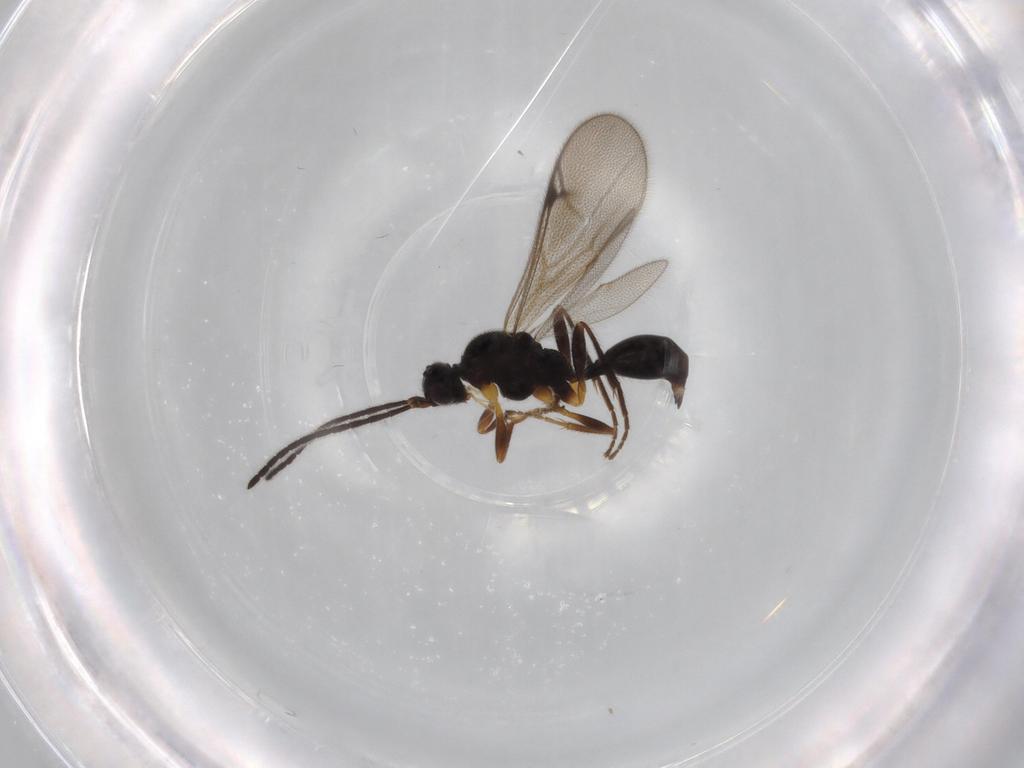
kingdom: Animalia
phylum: Arthropoda
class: Insecta
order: Hymenoptera
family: Proctotrupidae
